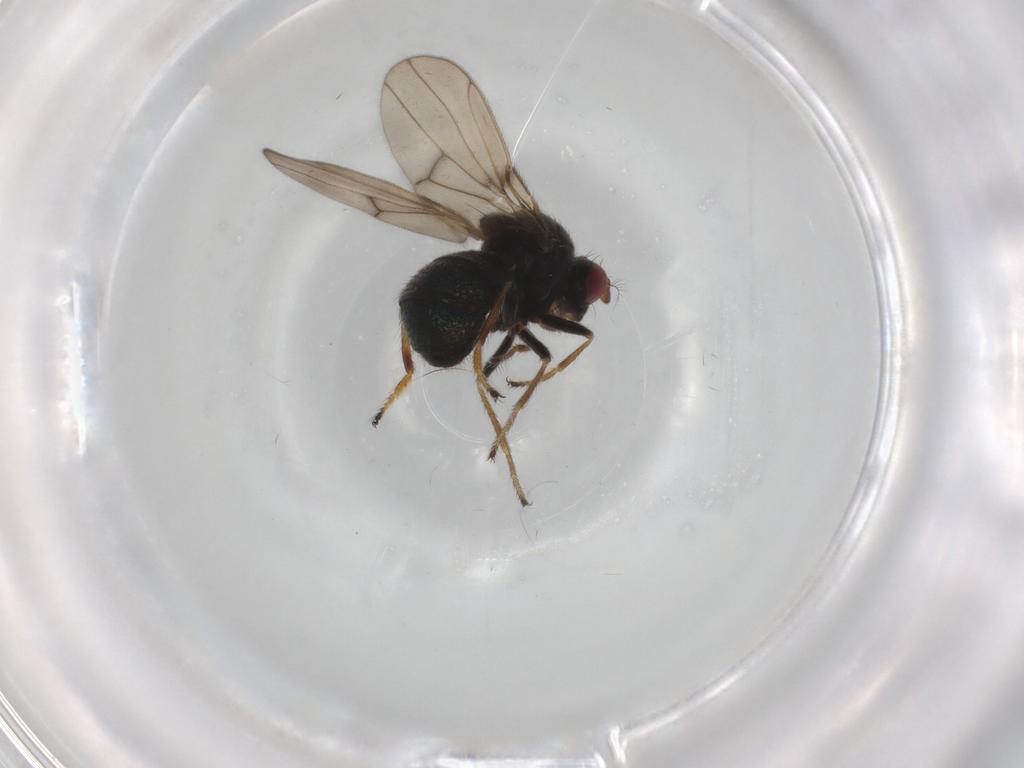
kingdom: Animalia
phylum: Arthropoda
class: Insecta
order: Diptera
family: Ephydridae
